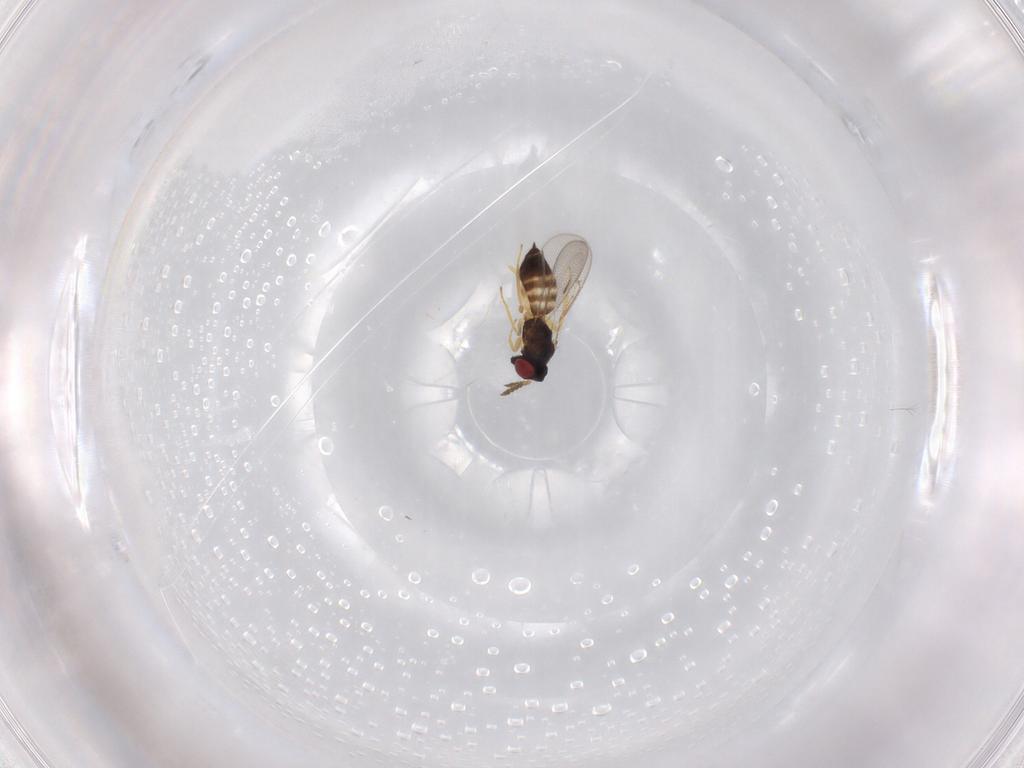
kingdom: Animalia
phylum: Arthropoda
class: Insecta
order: Hymenoptera
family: Eulophidae
